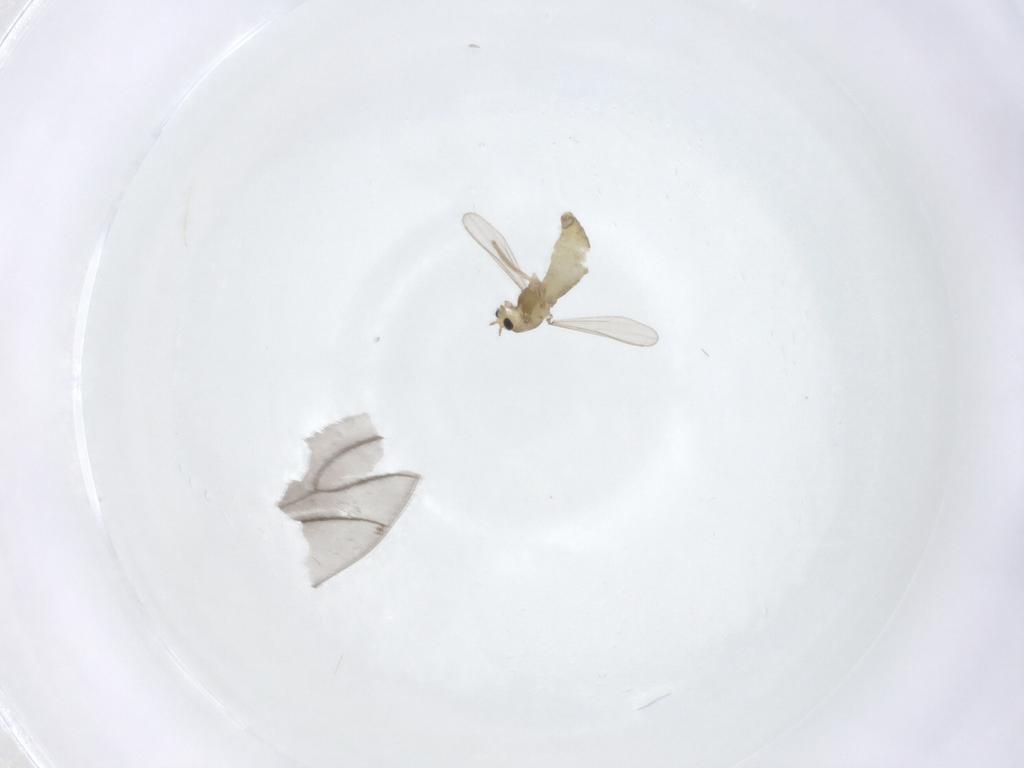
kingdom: Animalia
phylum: Arthropoda
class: Insecta
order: Diptera
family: Chironomidae
